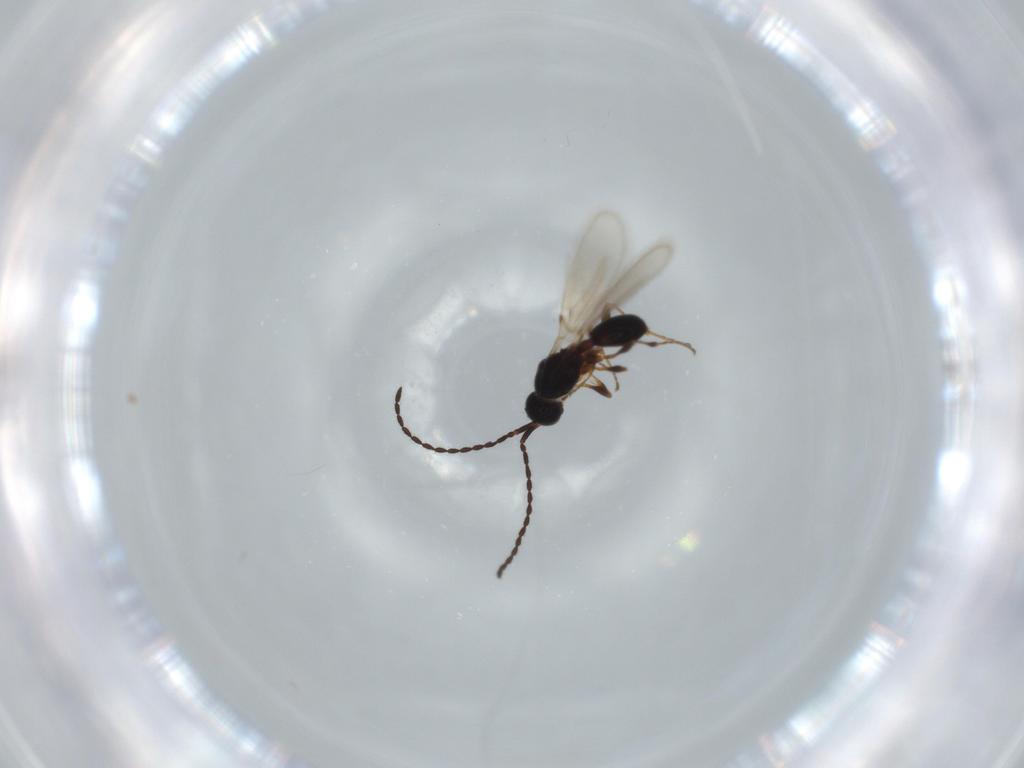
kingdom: Animalia
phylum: Arthropoda
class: Insecta
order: Hymenoptera
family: Diapriidae
